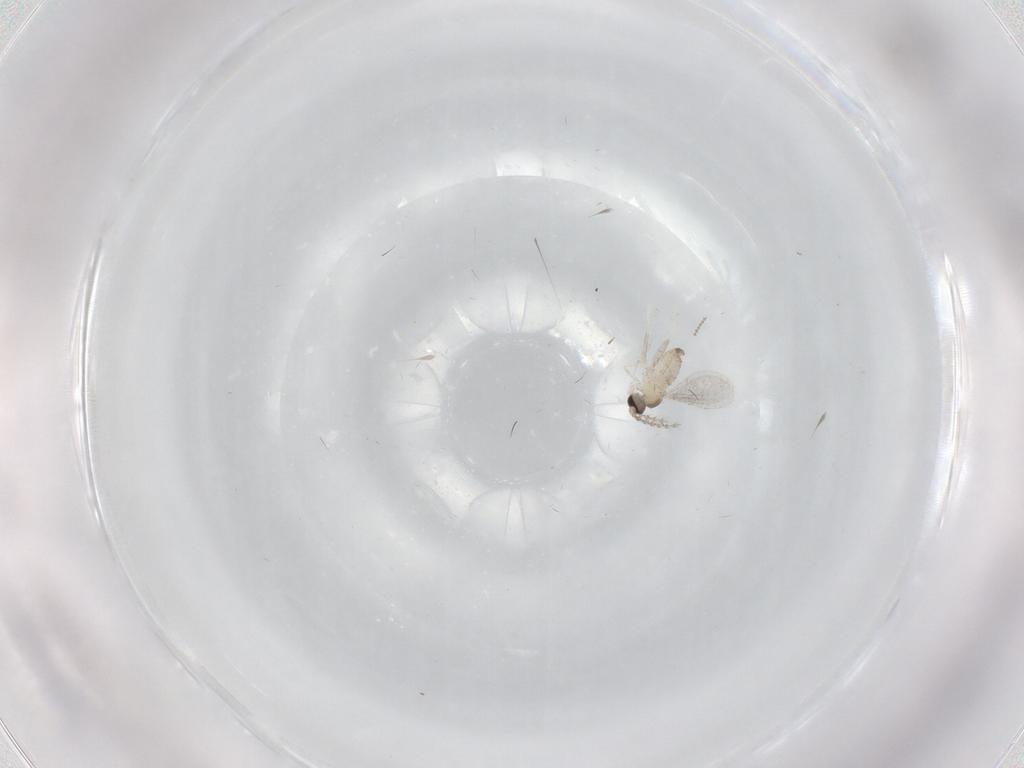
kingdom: Animalia
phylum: Arthropoda
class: Insecta
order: Diptera
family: Cecidomyiidae
